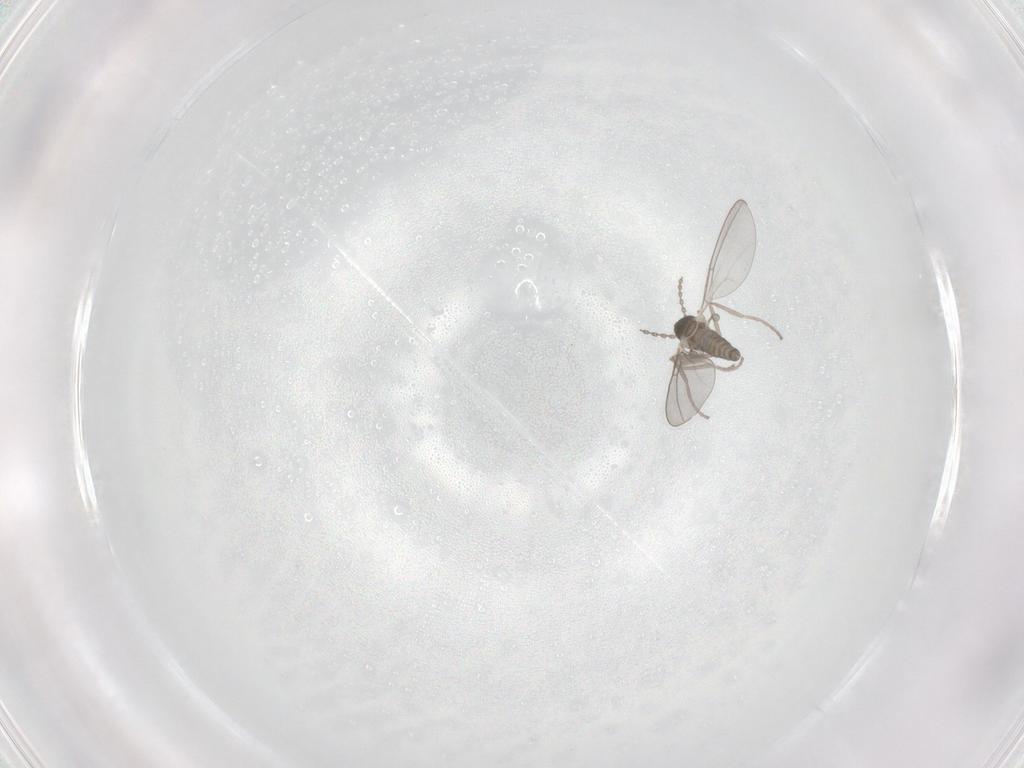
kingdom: Animalia
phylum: Arthropoda
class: Insecta
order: Diptera
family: Cecidomyiidae
